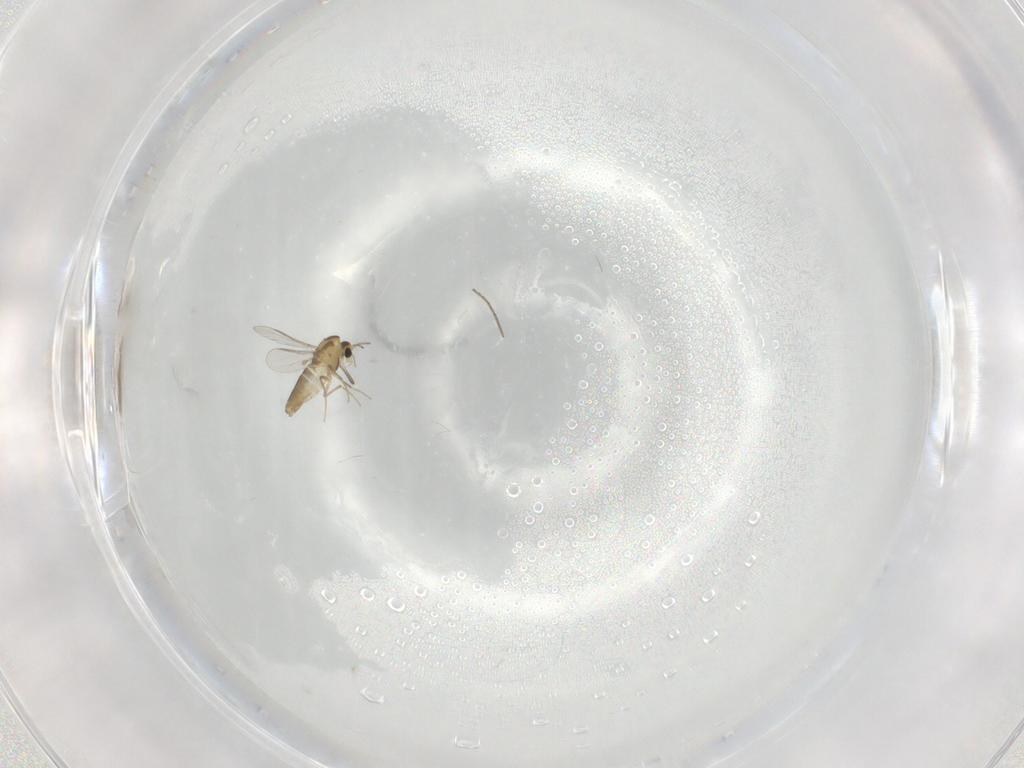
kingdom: Animalia
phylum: Arthropoda
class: Insecta
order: Diptera
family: Chironomidae
